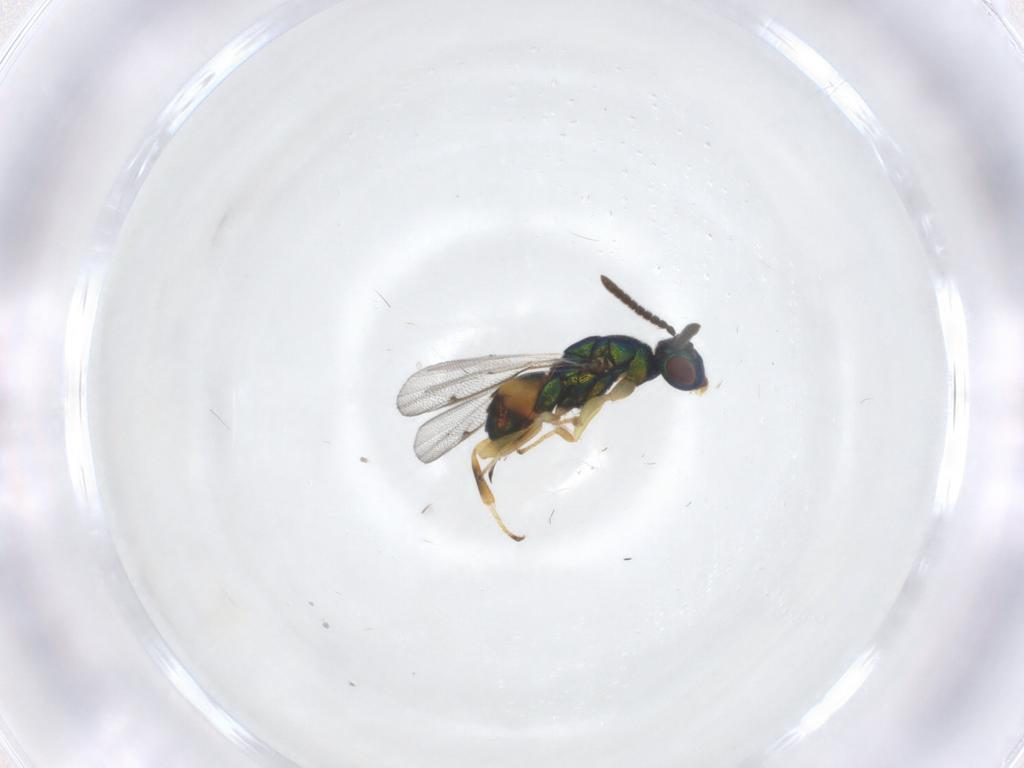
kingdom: Animalia
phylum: Arthropoda
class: Insecta
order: Hymenoptera
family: Torymidae
